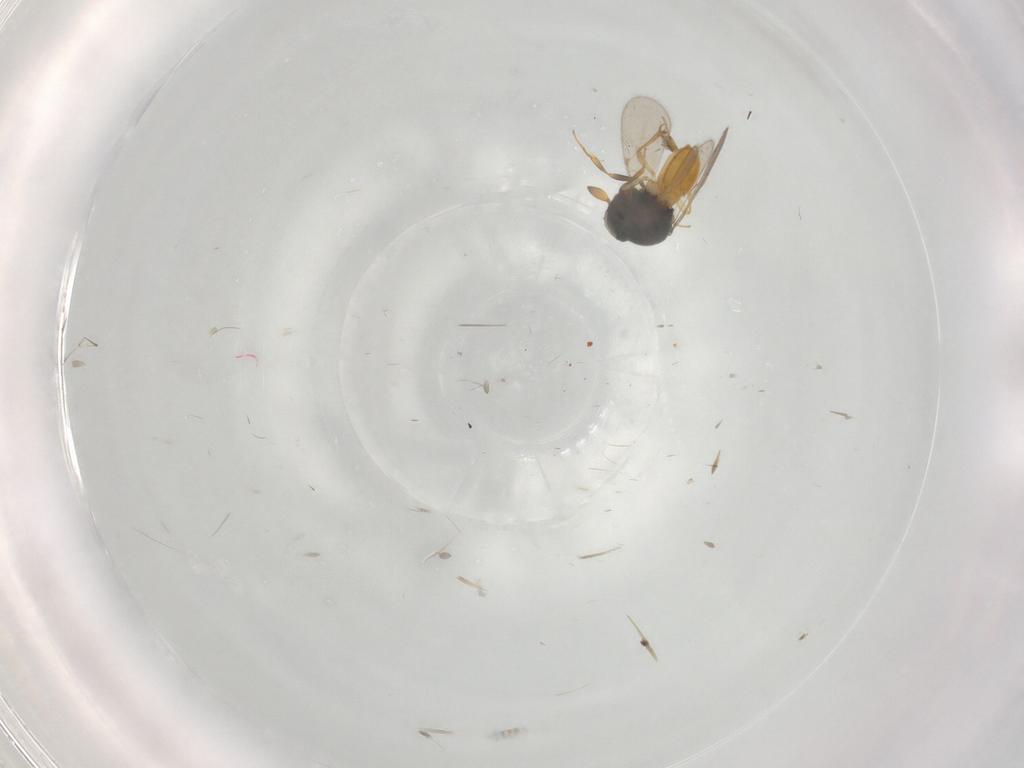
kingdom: Animalia
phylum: Arthropoda
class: Insecta
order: Hymenoptera
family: Scelionidae
